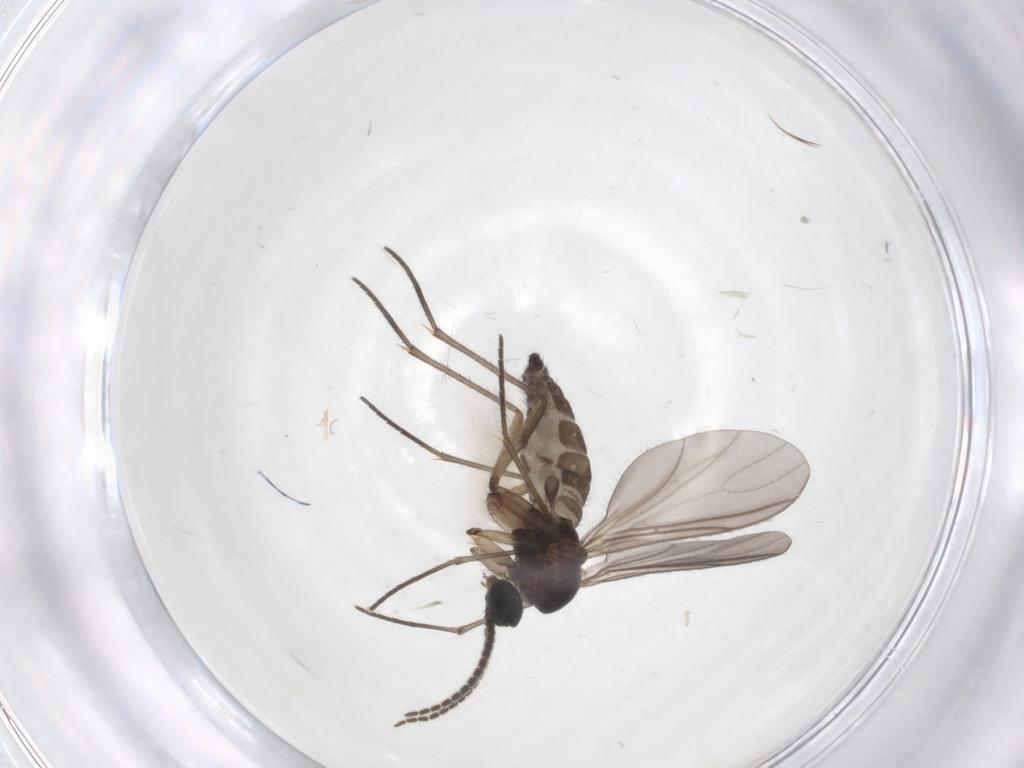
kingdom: Animalia
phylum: Arthropoda
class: Insecta
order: Diptera
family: Sciaridae
